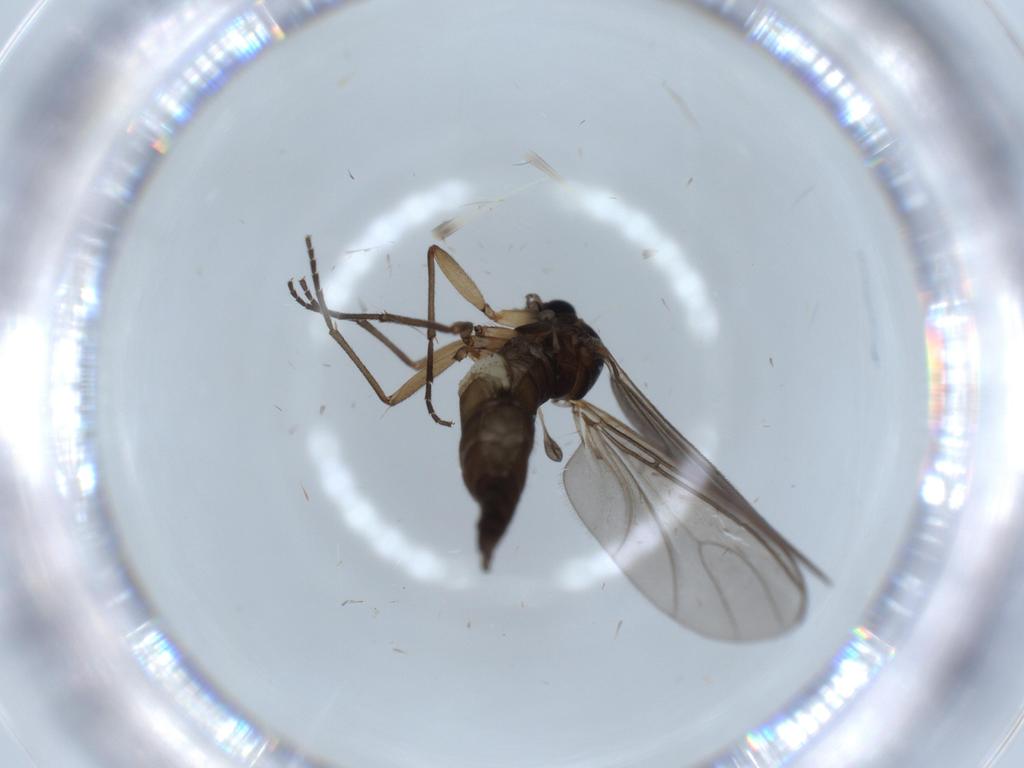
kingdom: Animalia
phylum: Arthropoda
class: Insecta
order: Diptera
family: Sciaridae
